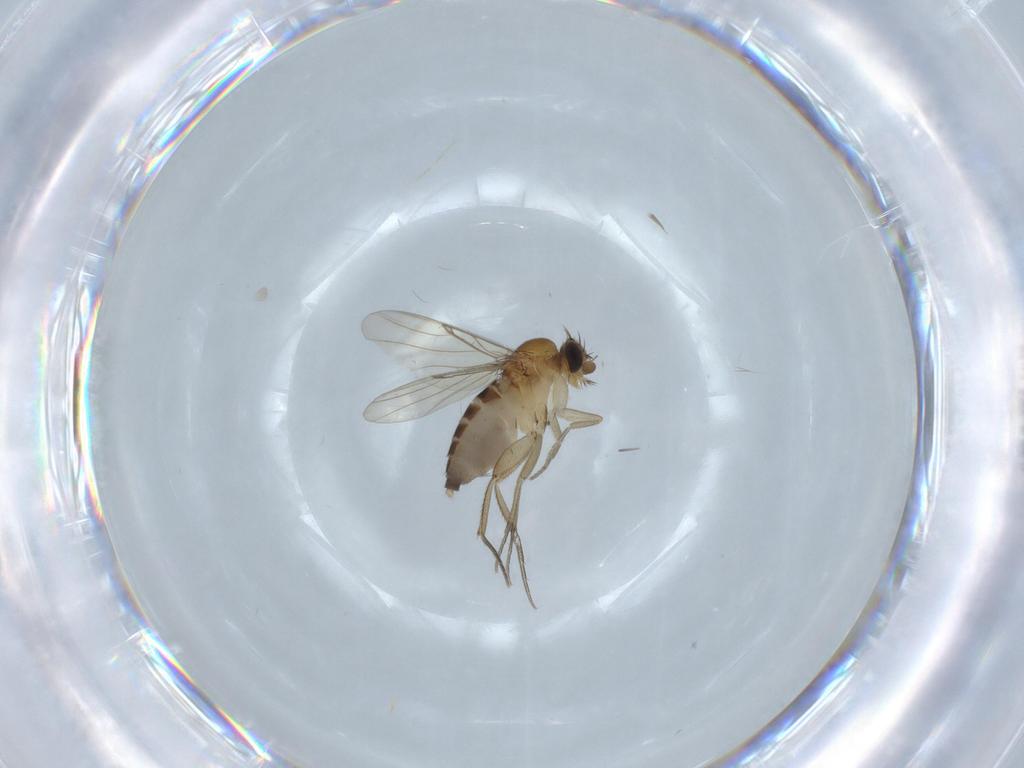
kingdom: Animalia
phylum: Arthropoda
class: Insecta
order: Diptera
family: Phoridae
